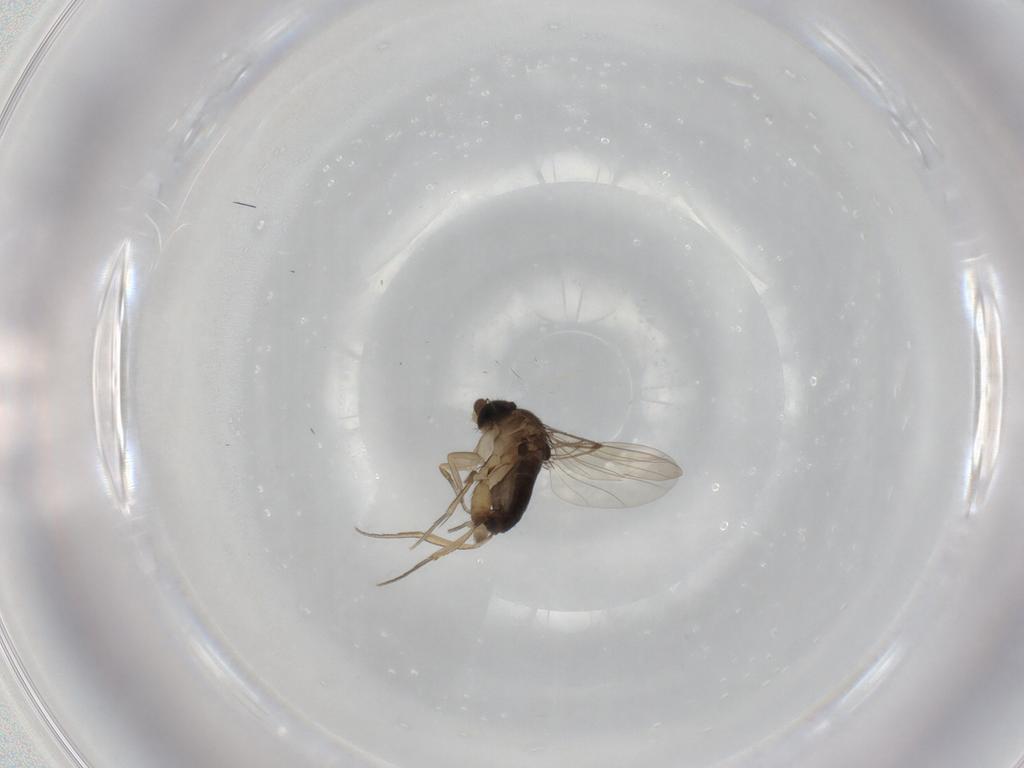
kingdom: Animalia
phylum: Arthropoda
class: Insecta
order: Diptera
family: Phoridae
